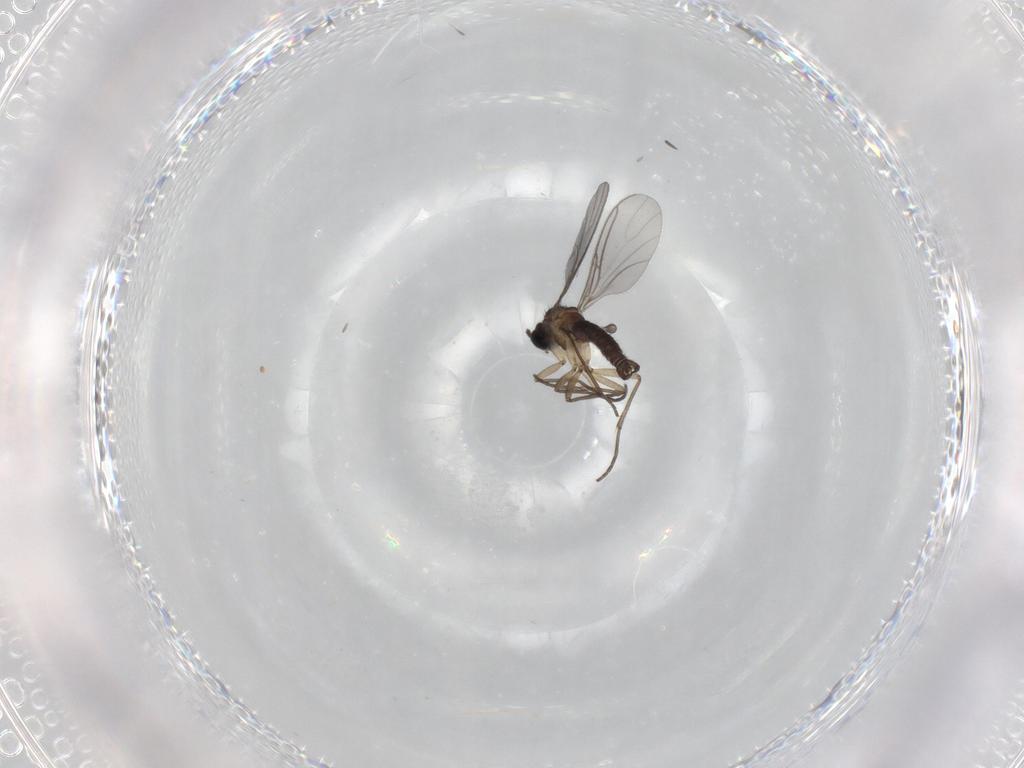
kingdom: Animalia
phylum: Arthropoda
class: Insecta
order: Diptera
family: Sciaridae
